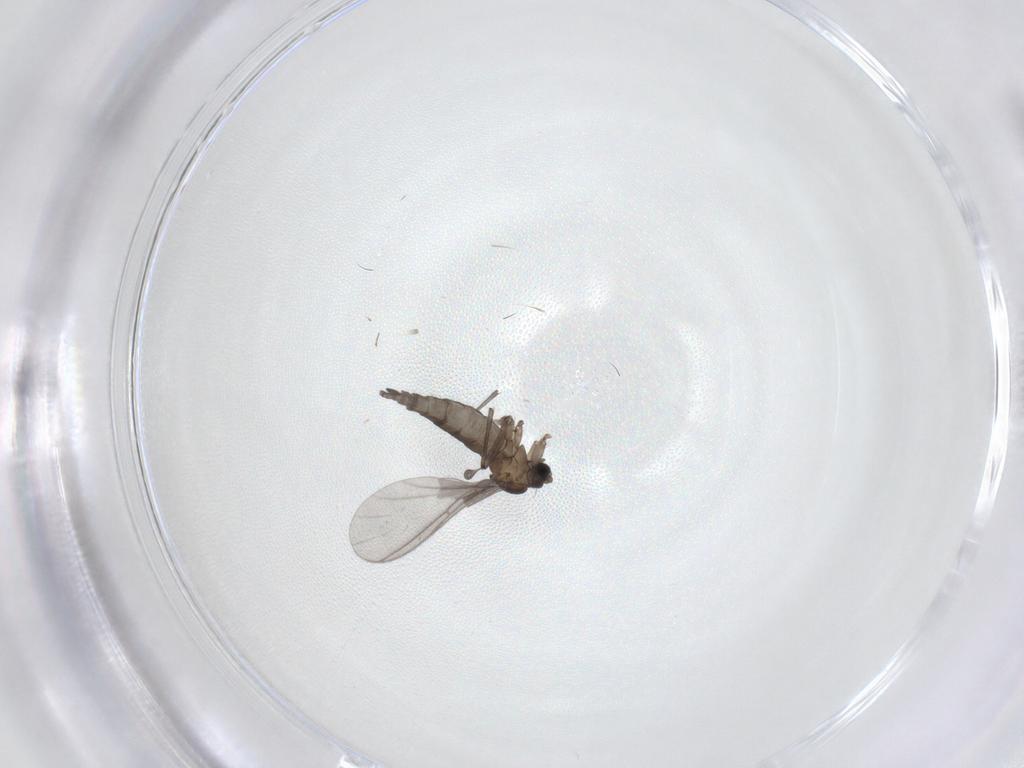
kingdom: Animalia
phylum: Arthropoda
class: Insecta
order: Diptera
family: Sciaridae
